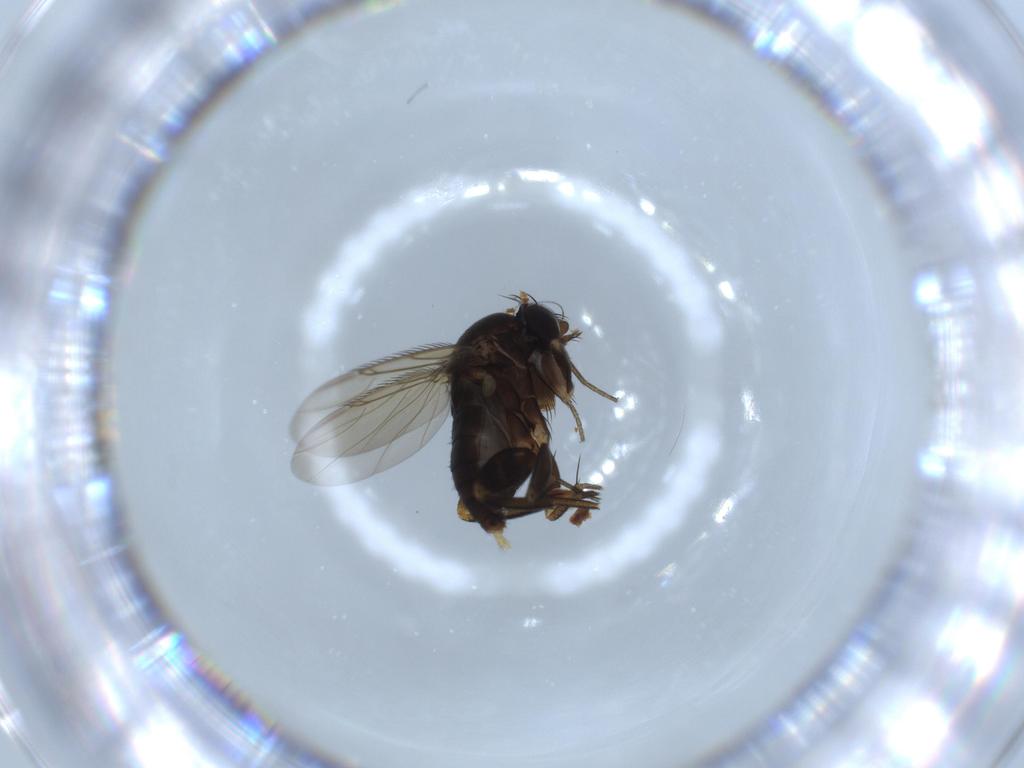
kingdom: Animalia
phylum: Arthropoda
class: Insecta
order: Diptera
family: Phoridae
